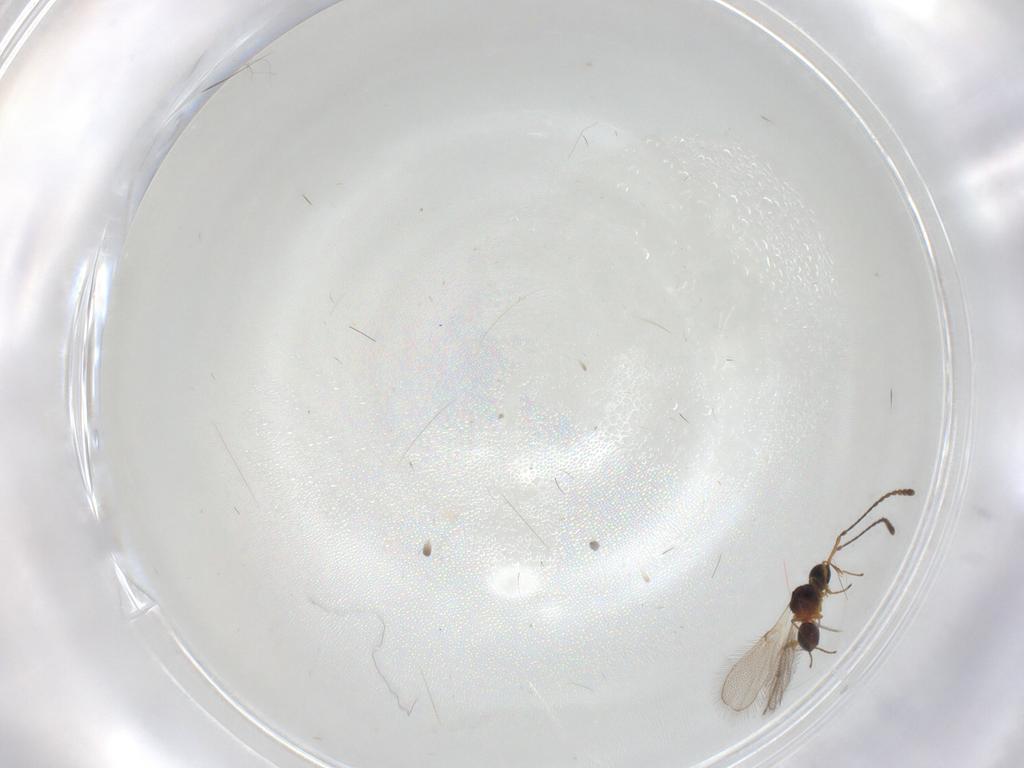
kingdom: Animalia
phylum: Arthropoda
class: Insecta
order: Hymenoptera
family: Diapriidae
